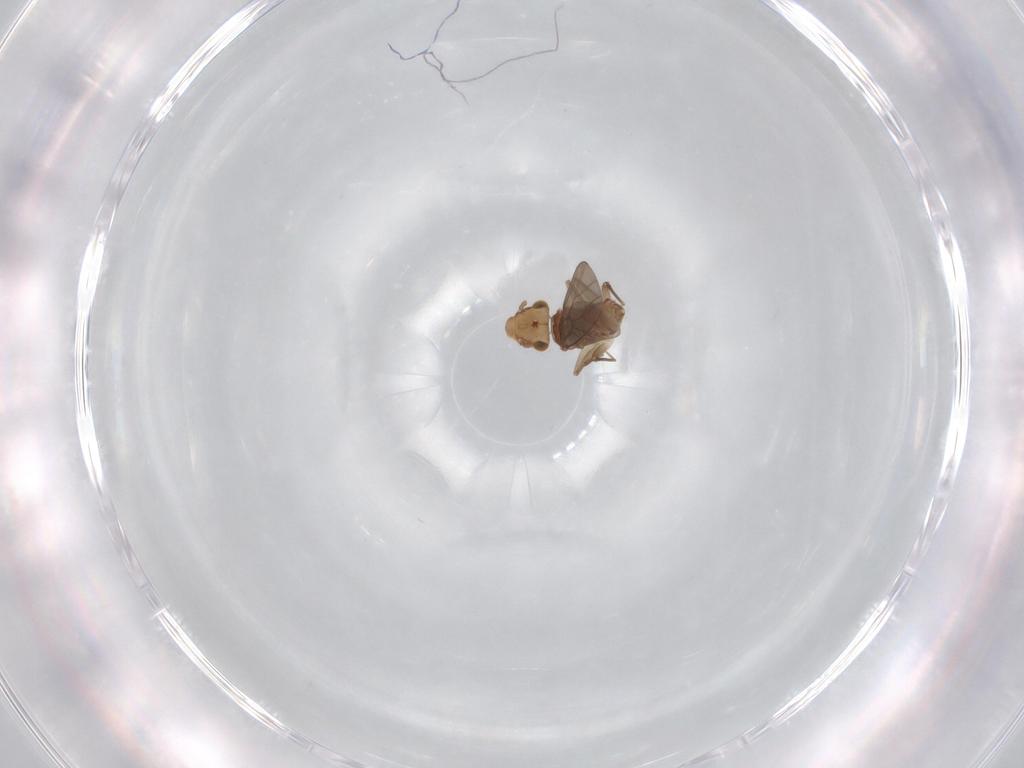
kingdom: Animalia
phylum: Arthropoda
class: Insecta
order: Psocodea
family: Lepidopsocidae
